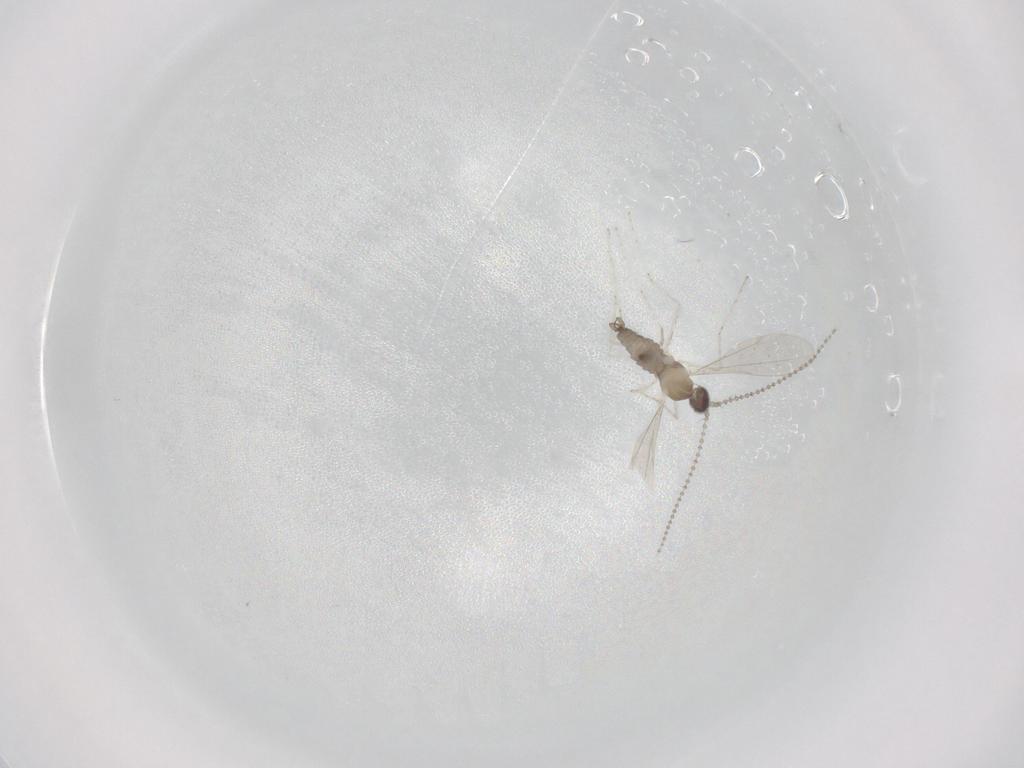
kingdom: Animalia
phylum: Arthropoda
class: Insecta
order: Diptera
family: Cecidomyiidae
